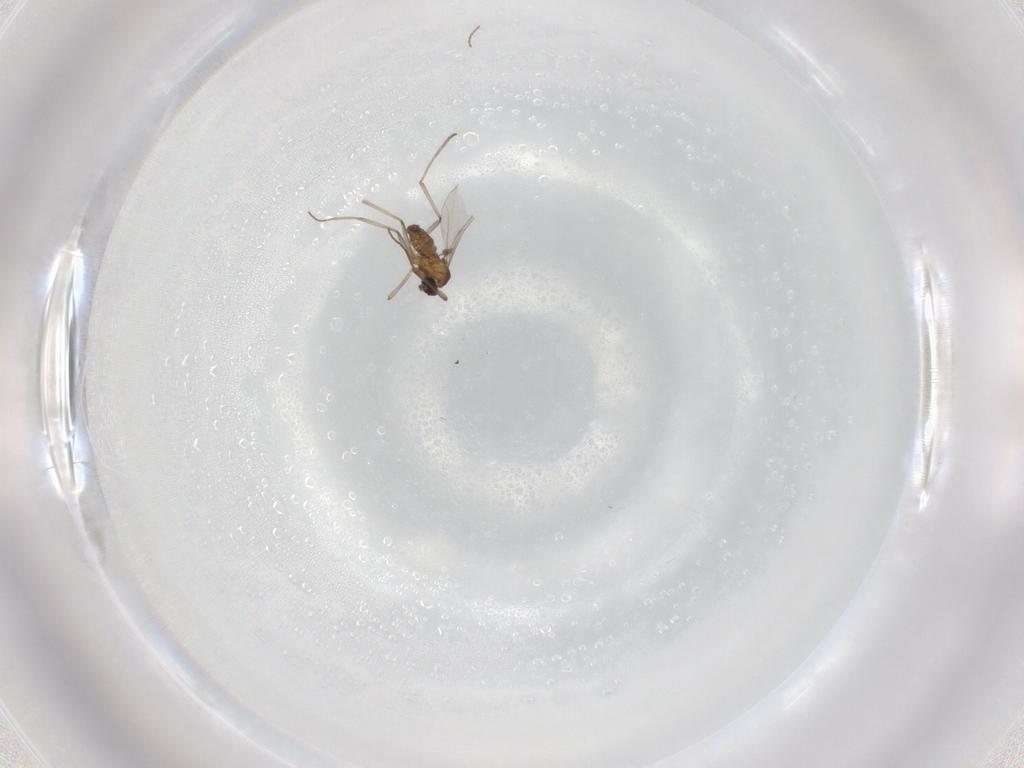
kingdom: Animalia
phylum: Arthropoda
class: Insecta
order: Diptera
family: Cecidomyiidae
